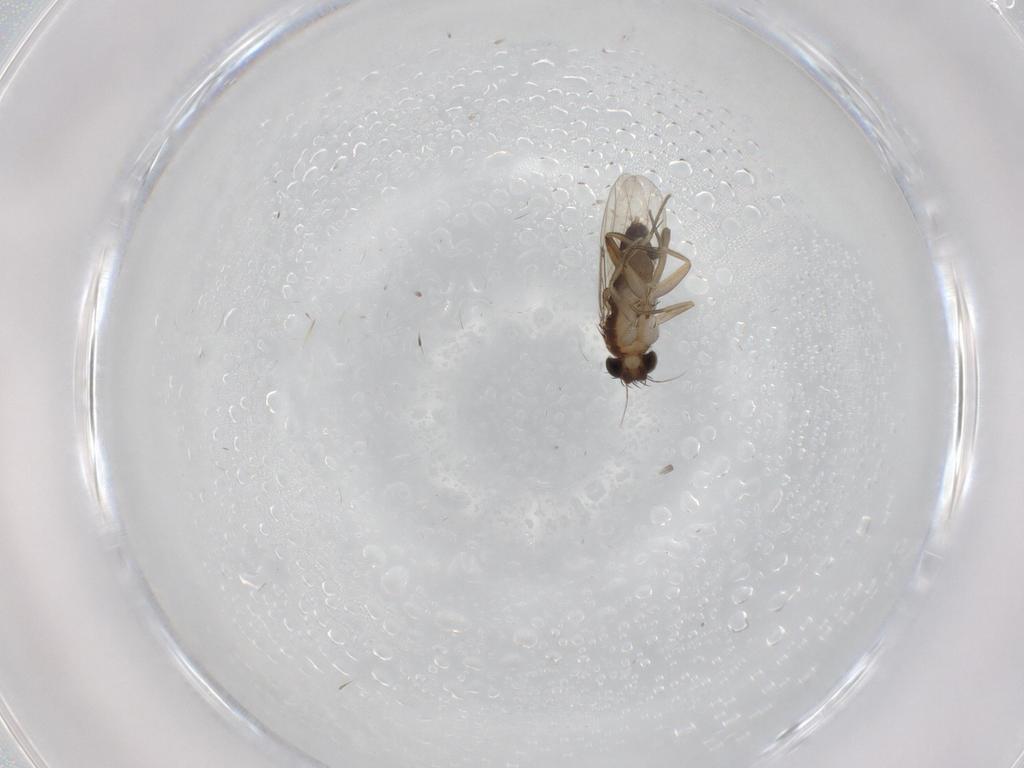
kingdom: Animalia
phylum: Arthropoda
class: Insecta
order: Diptera
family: Phoridae
